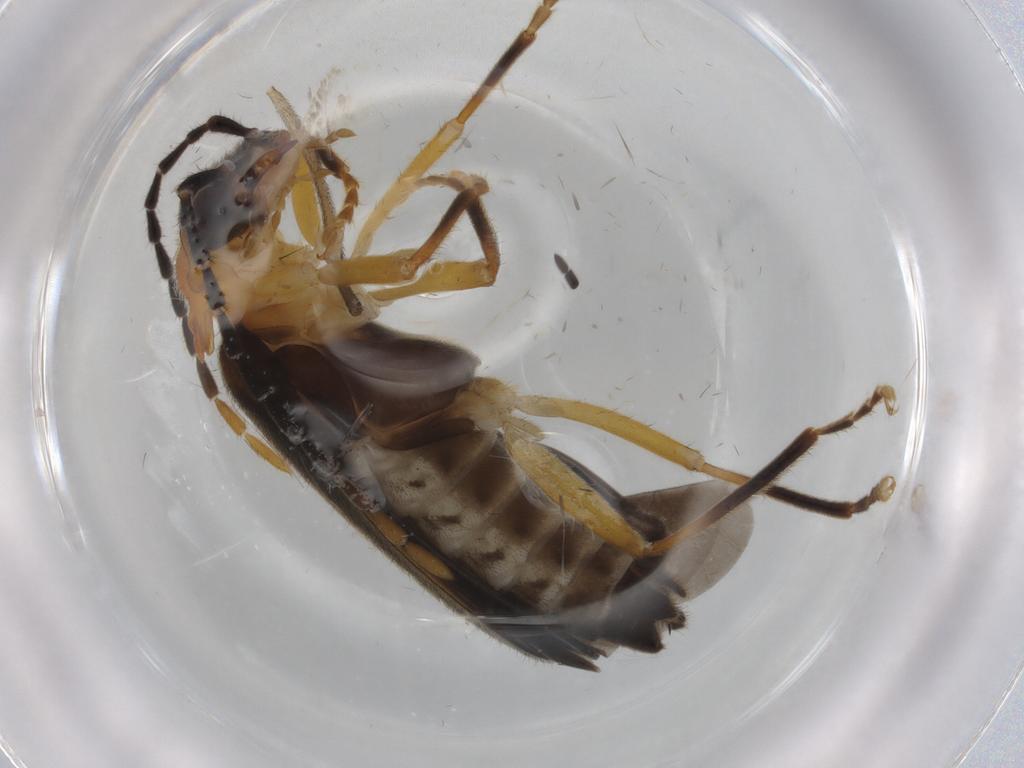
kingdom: Animalia
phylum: Arthropoda
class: Insecta
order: Coleoptera
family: Cantharidae
